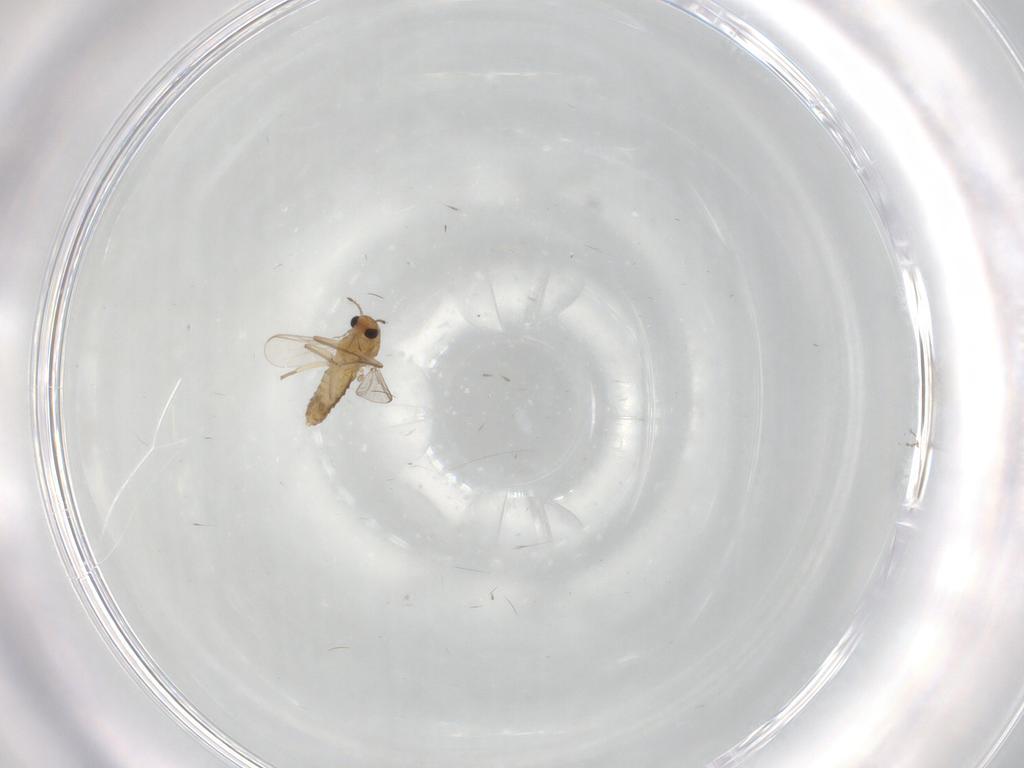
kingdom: Animalia
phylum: Arthropoda
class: Insecta
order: Diptera
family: Chironomidae
